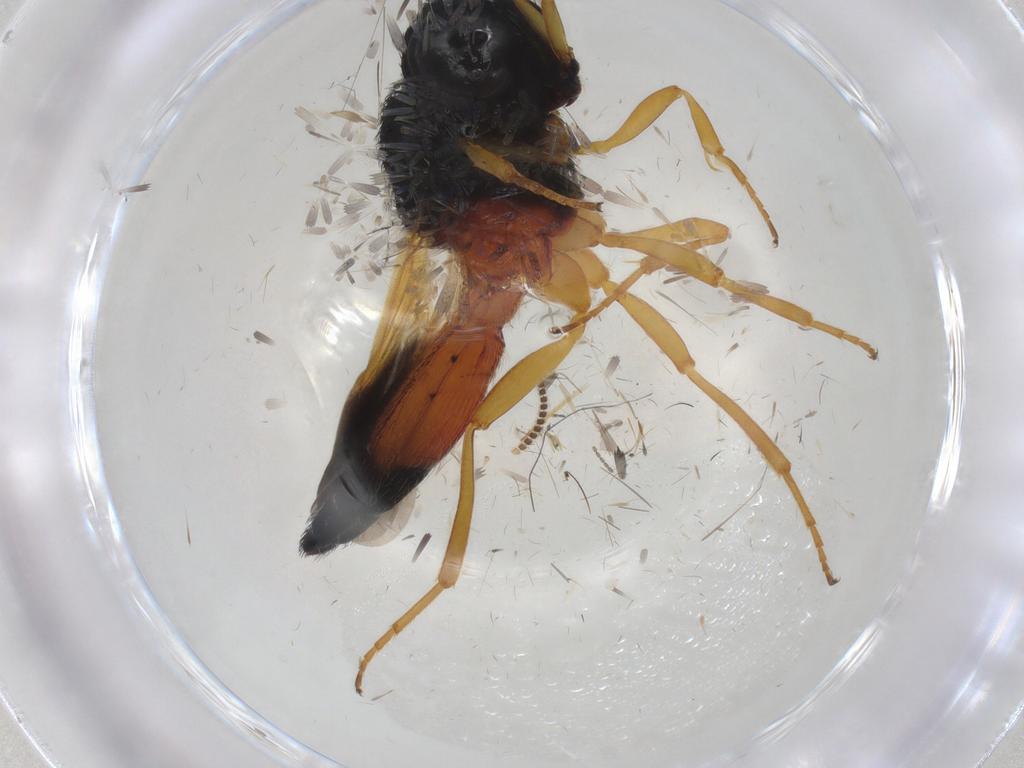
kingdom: Animalia
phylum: Arthropoda
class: Insecta
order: Hymenoptera
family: Scelionidae
